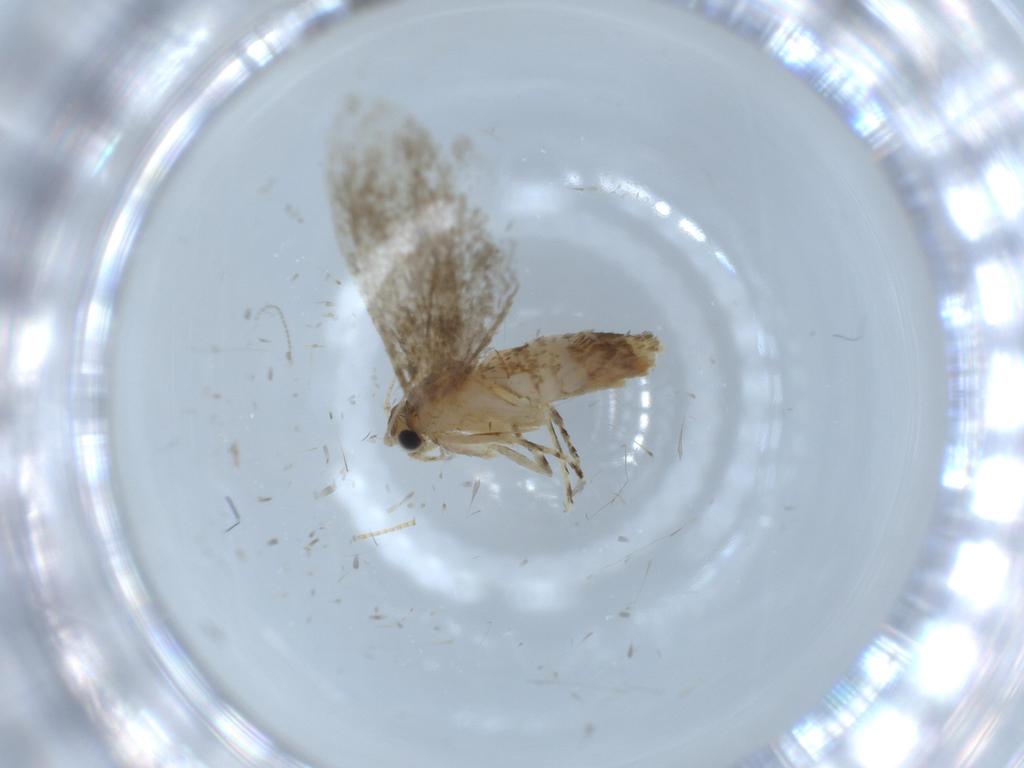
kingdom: Animalia
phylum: Arthropoda
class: Insecta
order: Lepidoptera
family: Tineidae
